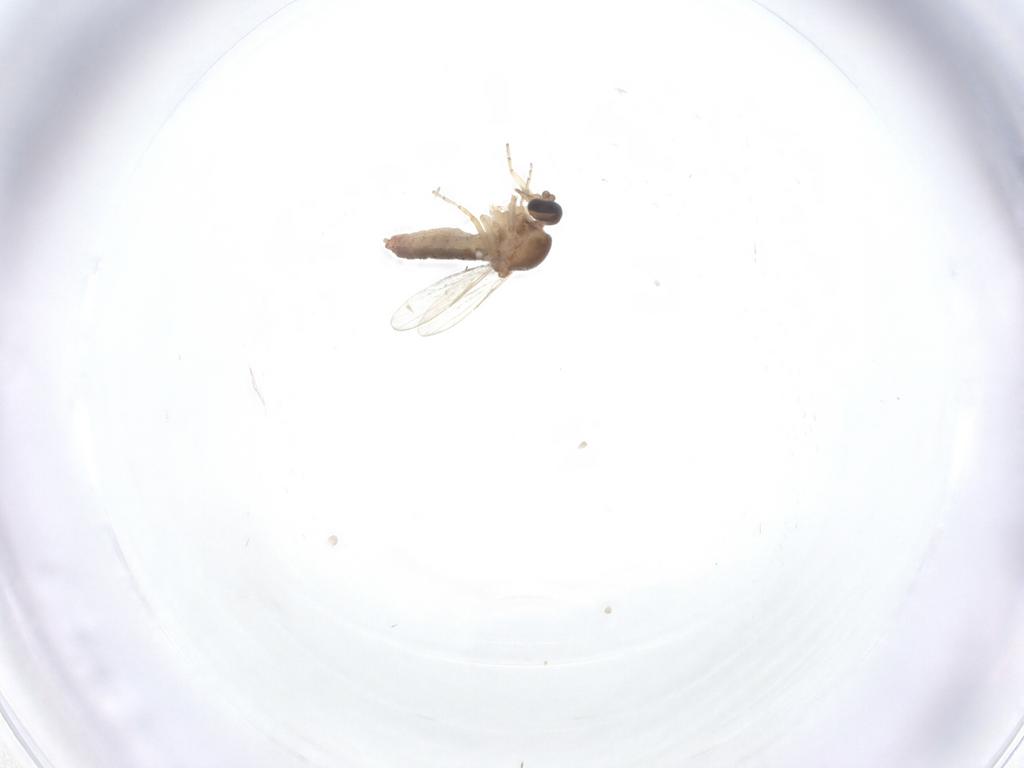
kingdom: Animalia
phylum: Arthropoda
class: Insecta
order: Diptera
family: Ceratopogonidae
